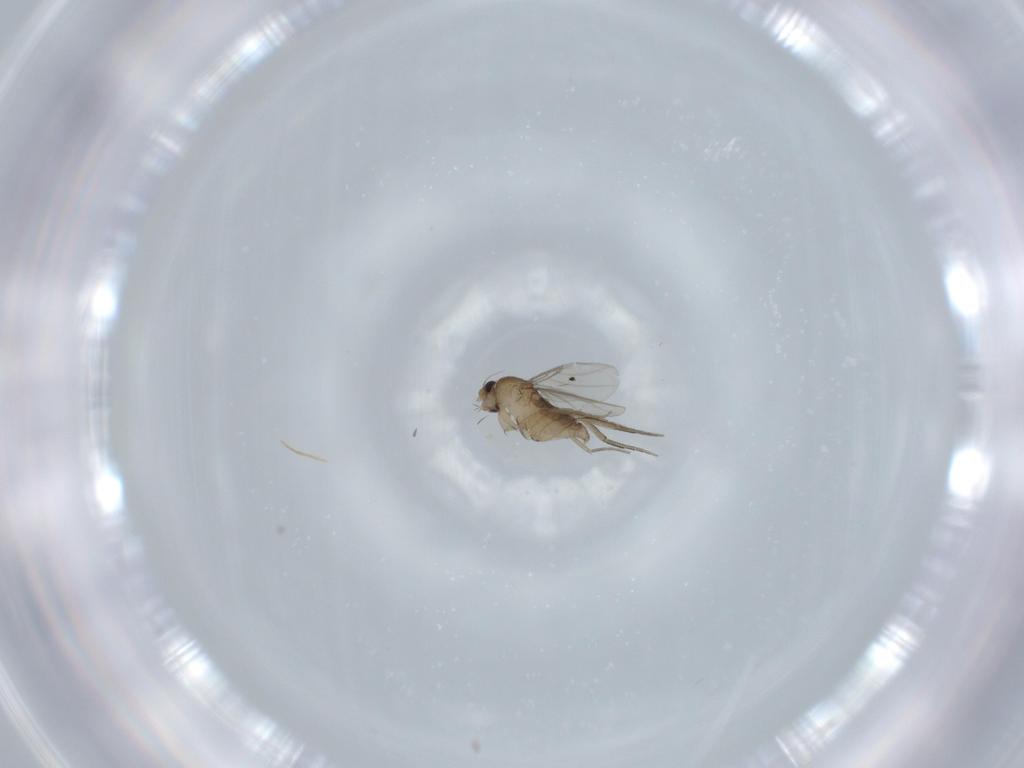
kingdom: Animalia
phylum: Arthropoda
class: Insecta
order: Diptera
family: Phoridae
